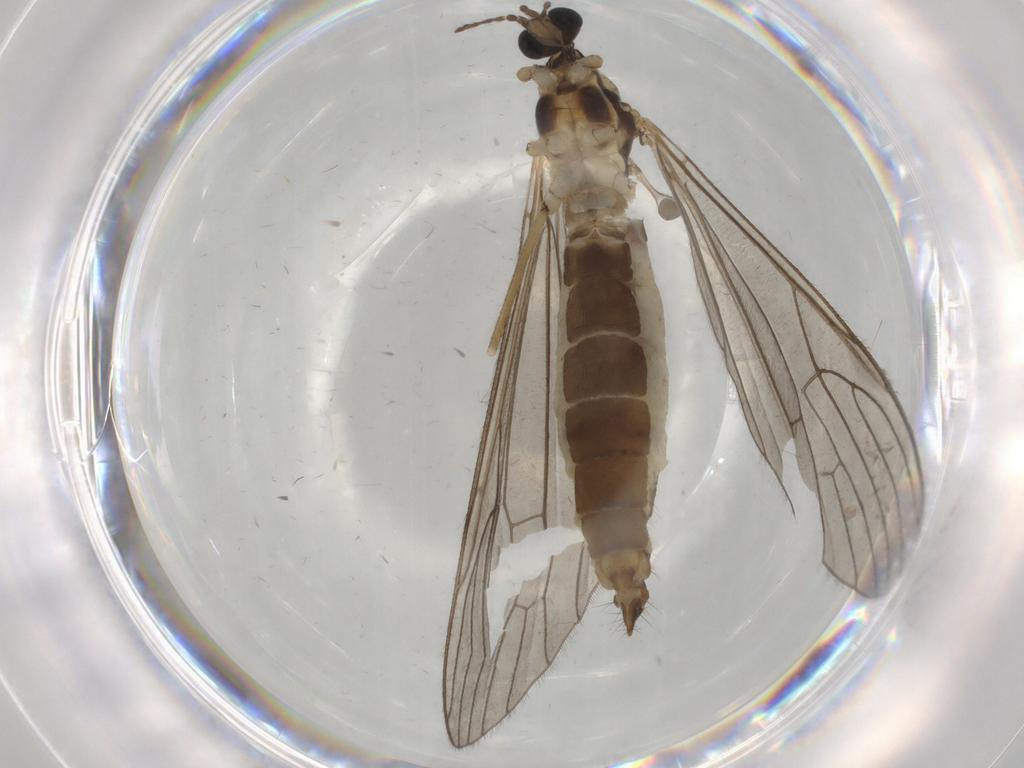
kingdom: Animalia
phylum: Arthropoda
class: Insecta
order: Diptera
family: Limoniidae
